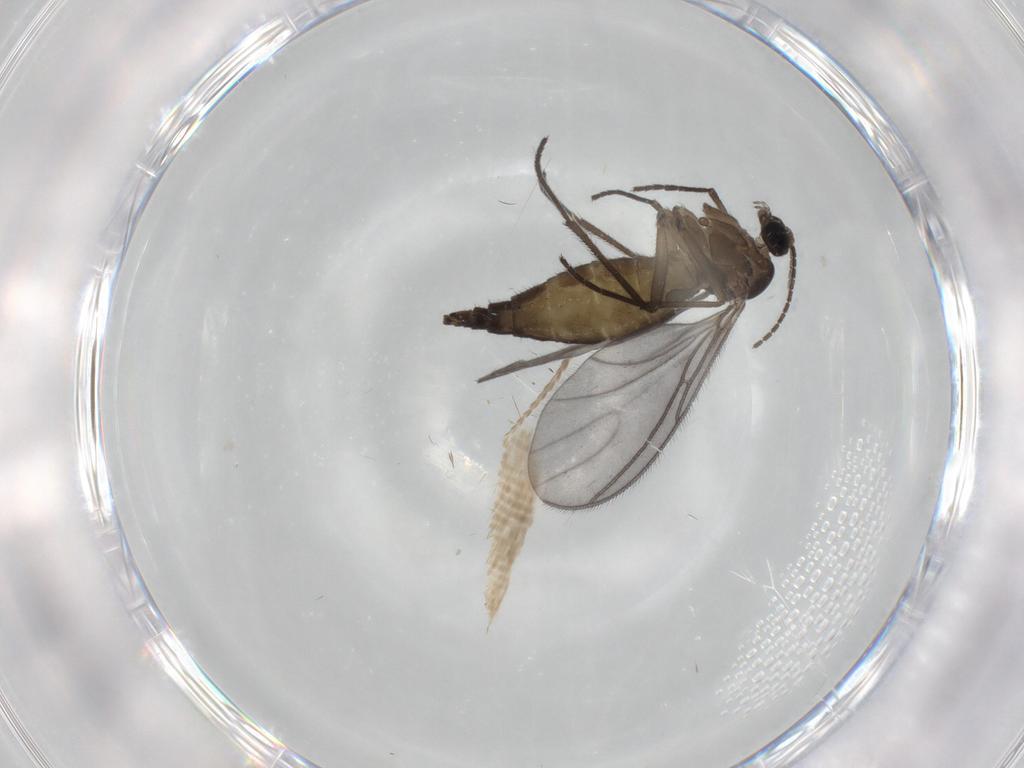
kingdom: Animalia
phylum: Arthropoda
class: Insecta
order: Diptera
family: Sciaridae
